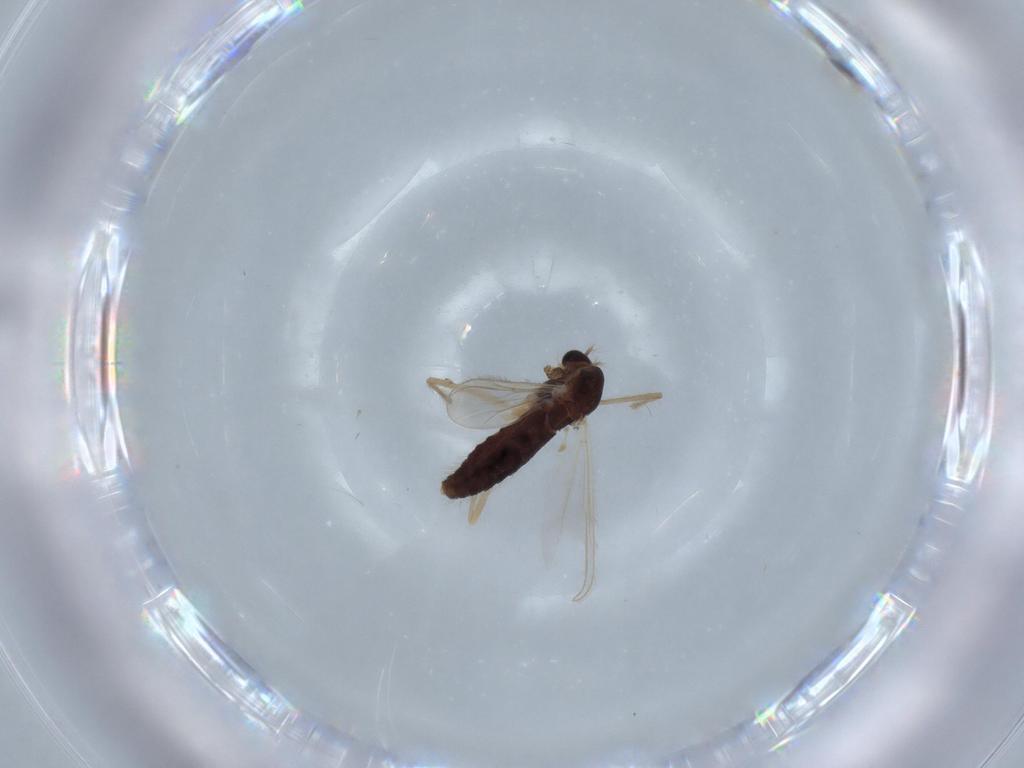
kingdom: Animalia
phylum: Arthropoda
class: Insecta
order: Diptera
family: Chironomidae
